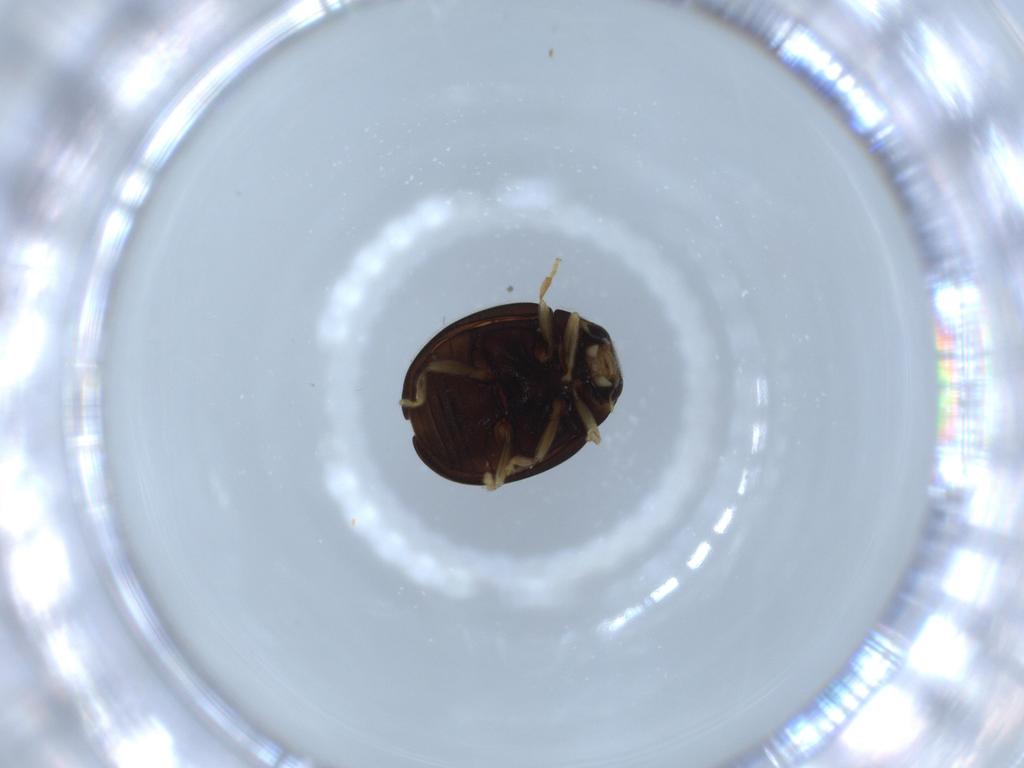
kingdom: Animalia
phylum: Arthropoda
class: Insecta
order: Coleoptera
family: Coccinellidae
